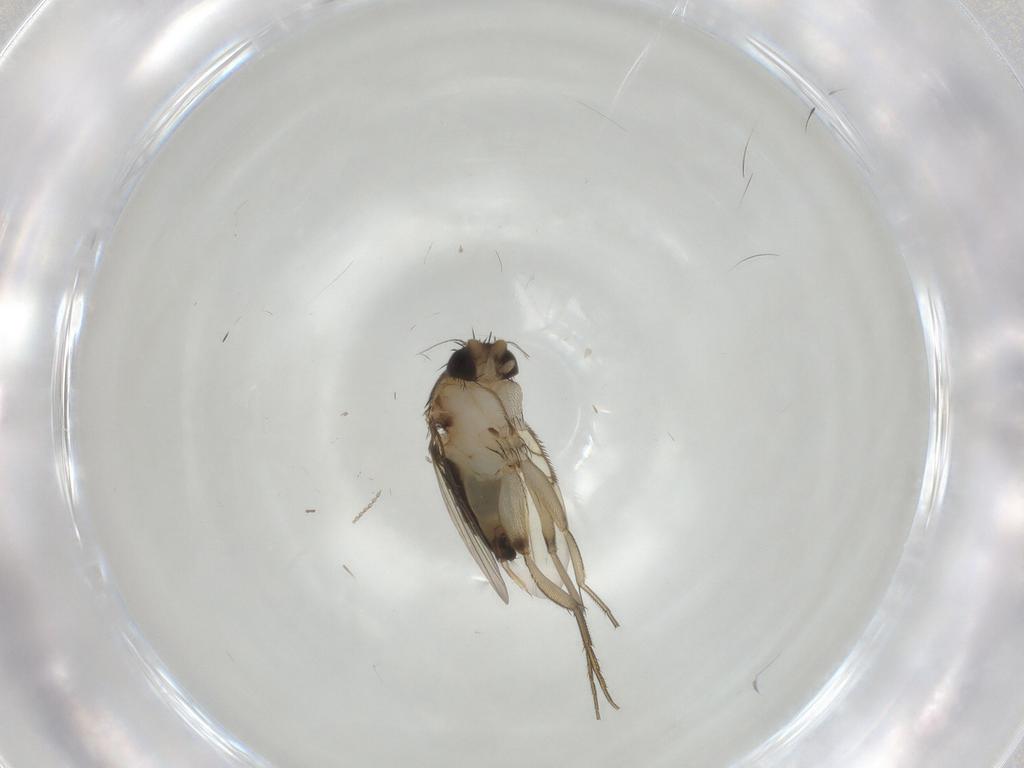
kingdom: Animalia
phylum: Arthropoda
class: Insecta
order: Diptera
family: Phoridae
